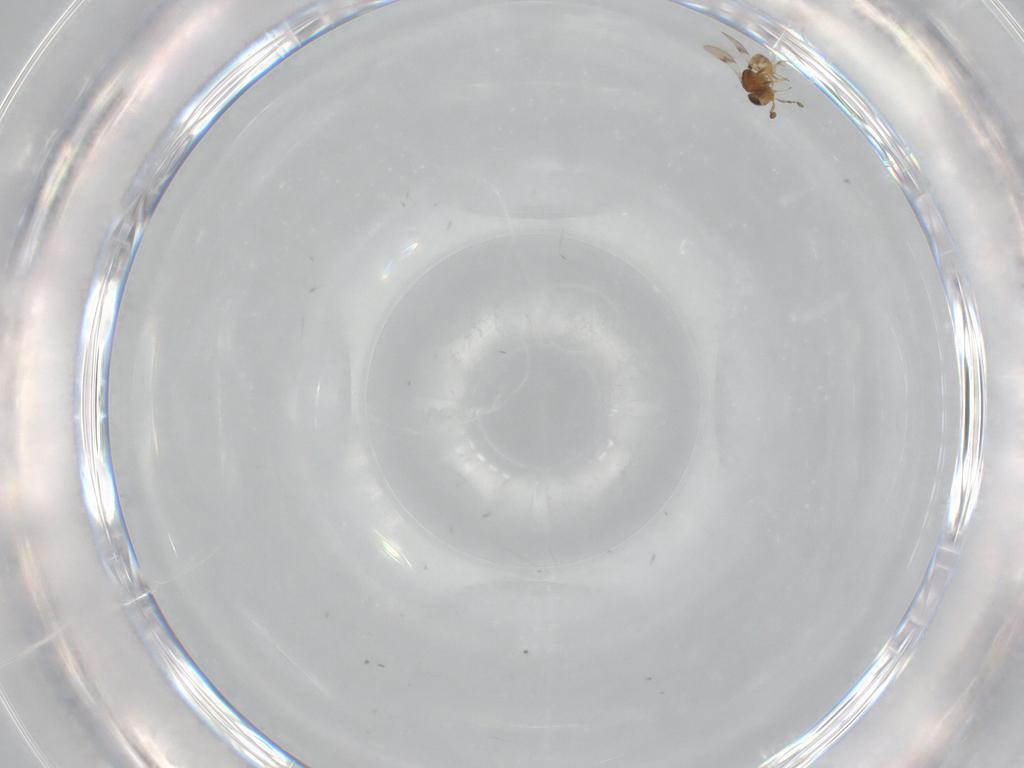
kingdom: Animalia
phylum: Arthropoda
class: Insecta
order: Hymenoptera
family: Scelionidae
